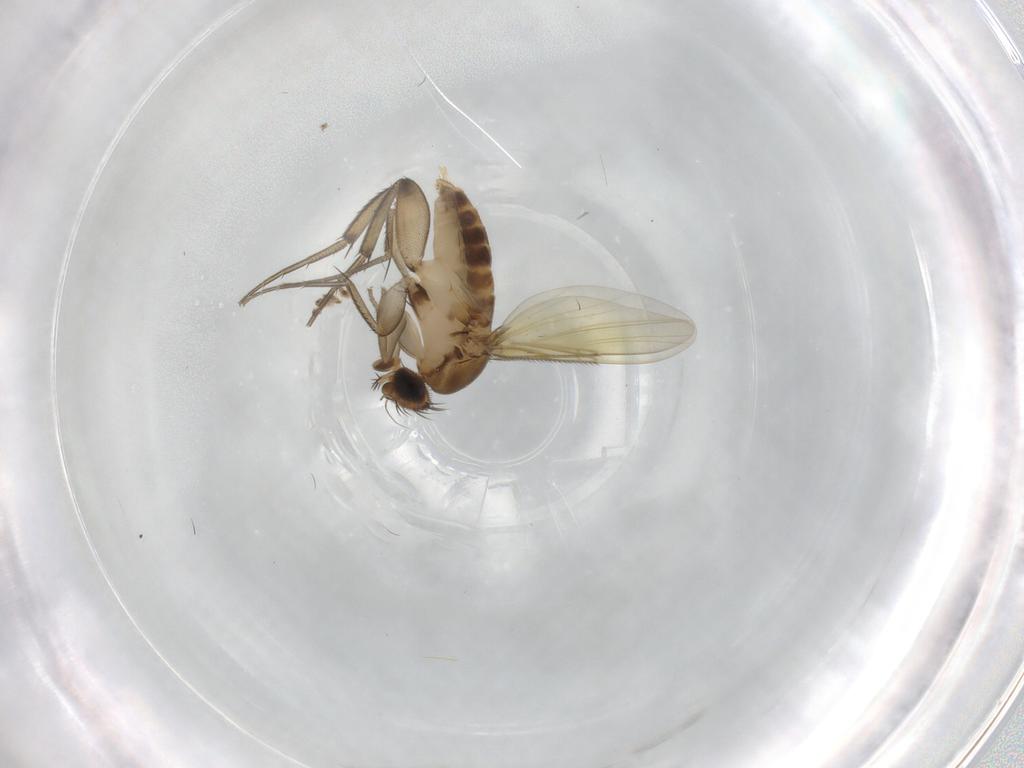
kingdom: Animalia
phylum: Arthropoda
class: Insecta
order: Diptera
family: Phoridae
